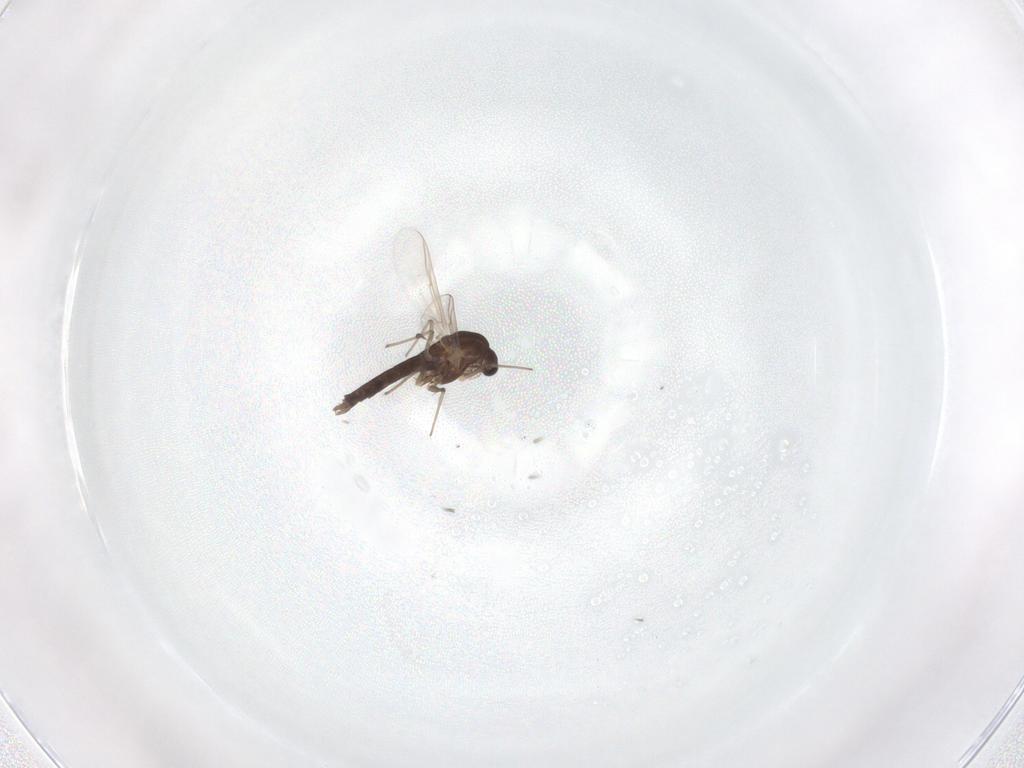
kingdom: Animalia
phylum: Arthropoda
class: Insecta
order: Diptera
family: Chironomidae
